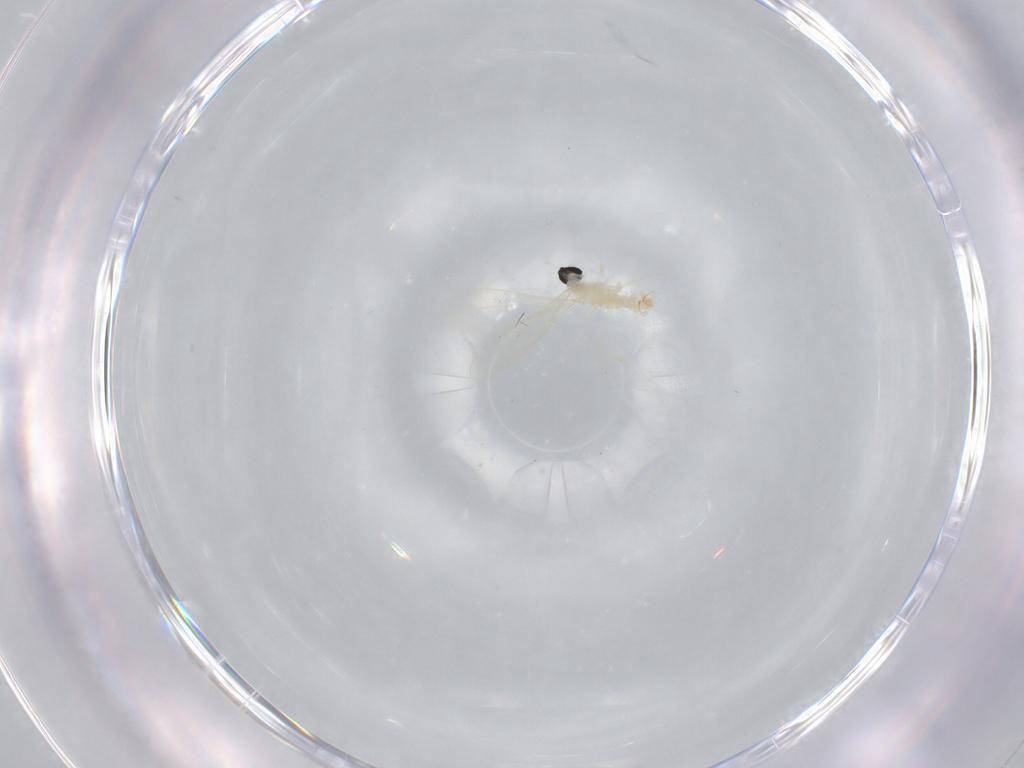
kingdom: Animalia
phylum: Arthropoda
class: Insecta
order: Diptera
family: Cecidomyiidae
